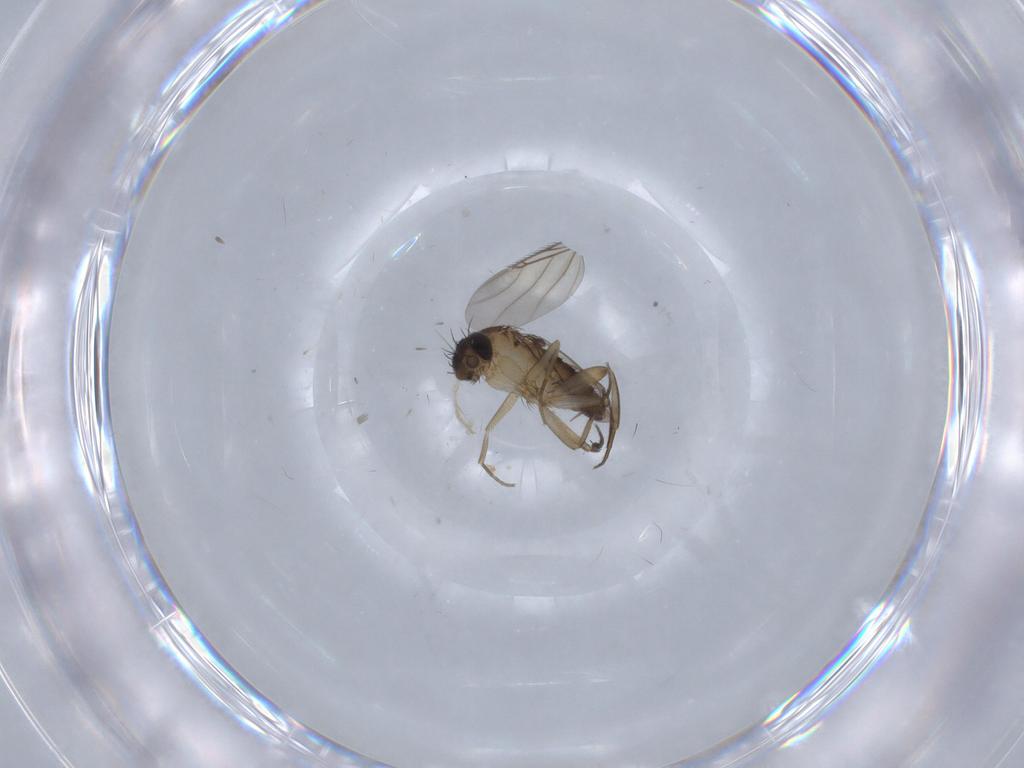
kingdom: Animalia
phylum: Arthropoda
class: Insecta
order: Diptera
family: Phoridae
